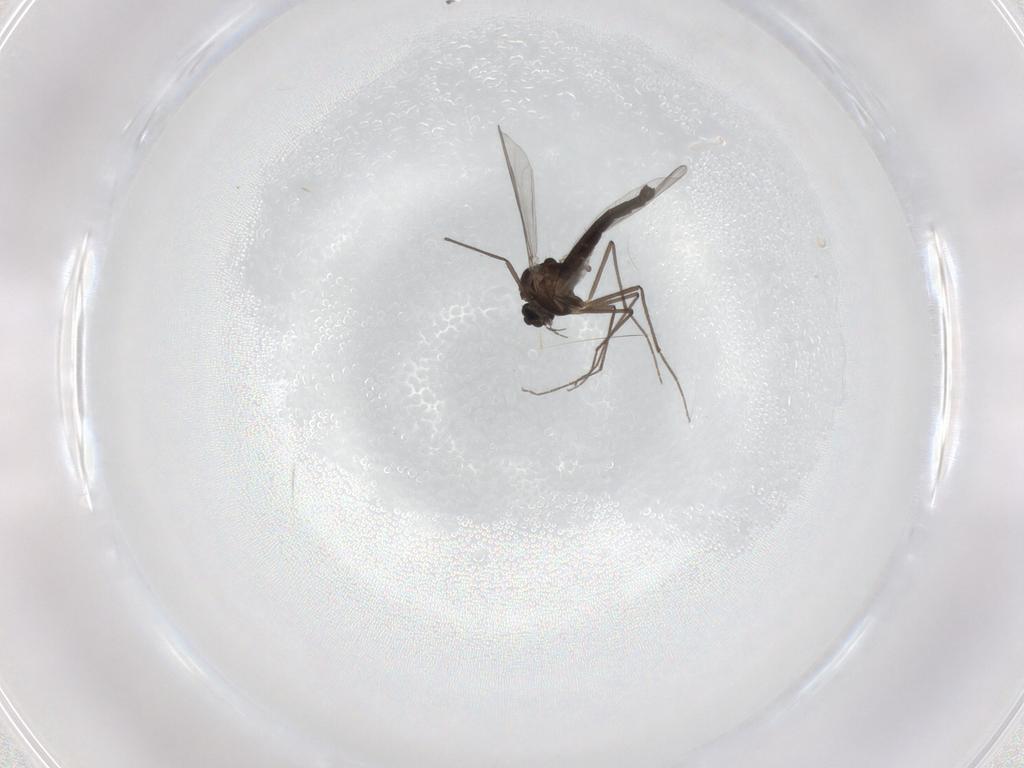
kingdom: Animalia
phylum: Arthropoda
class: Insecta
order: Diptera
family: Chironomidae
